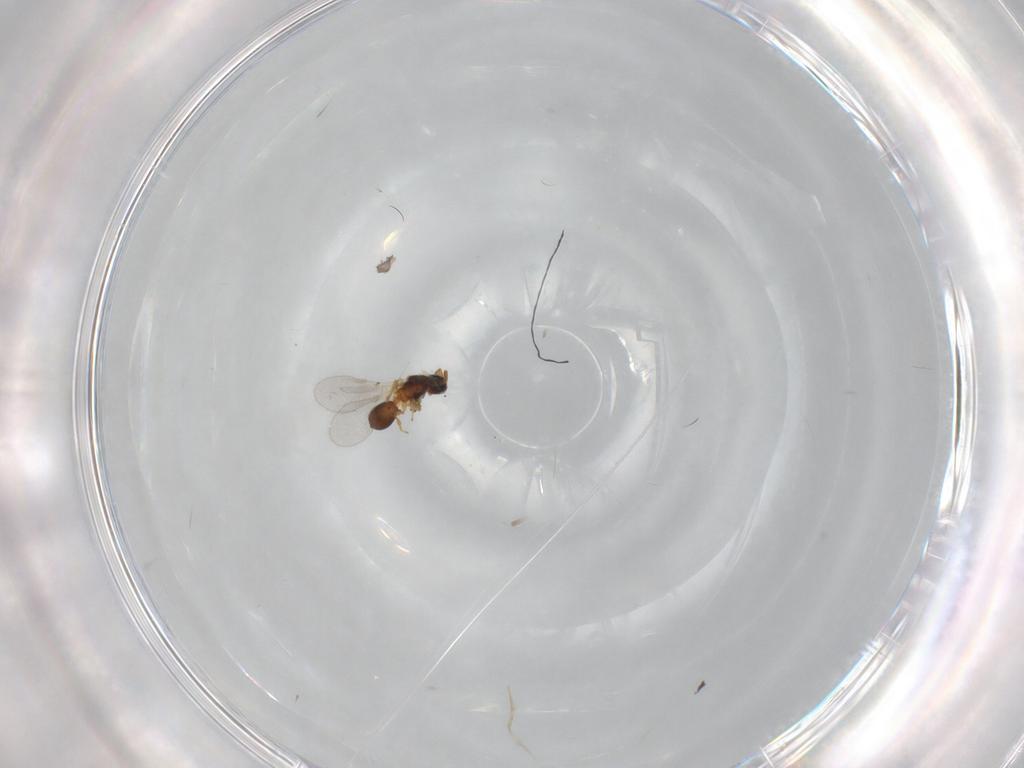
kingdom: Animalia
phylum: Arthropoda
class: Insecta
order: Hymenoptera
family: Diapriidae
